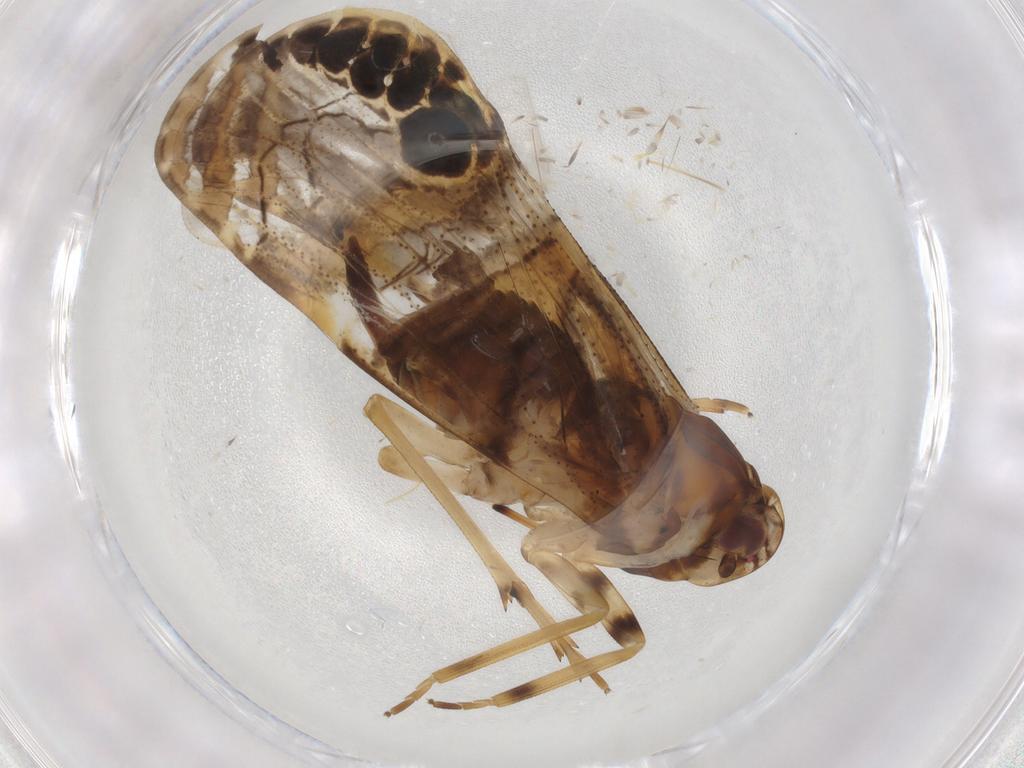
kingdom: Animalia
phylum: Arthropoda
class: Insecta
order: Hemiptera
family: Cixiidae
